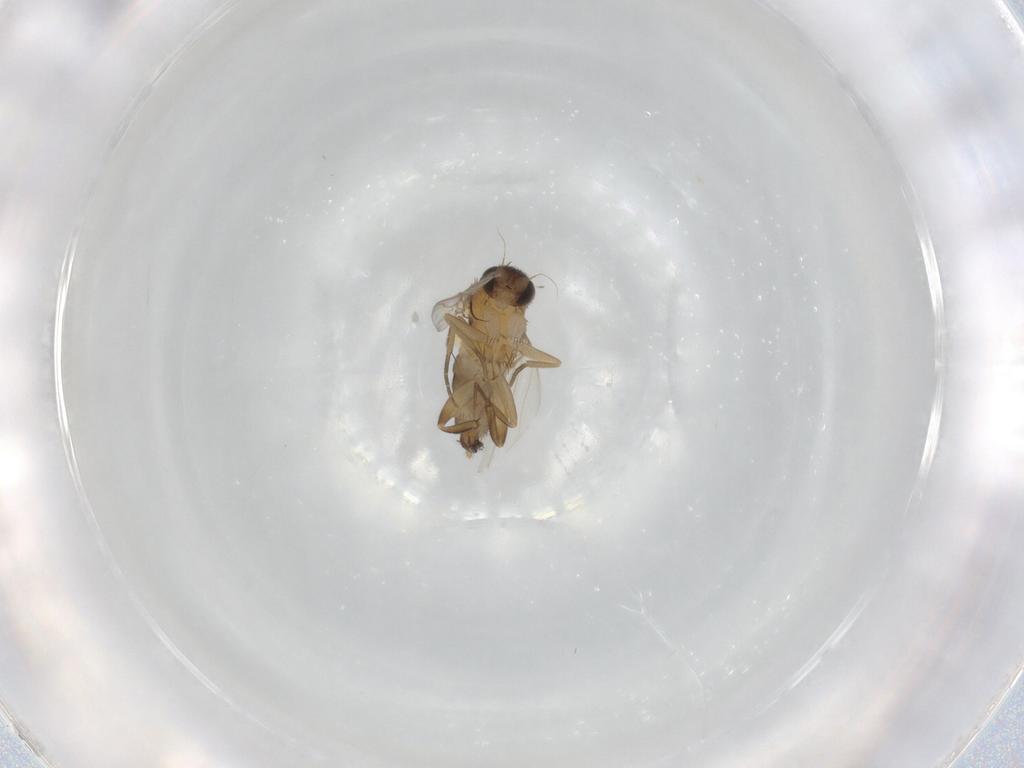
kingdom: Animalia
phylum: Arthropoda
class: Insecta
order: Diptera
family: Phoridae
